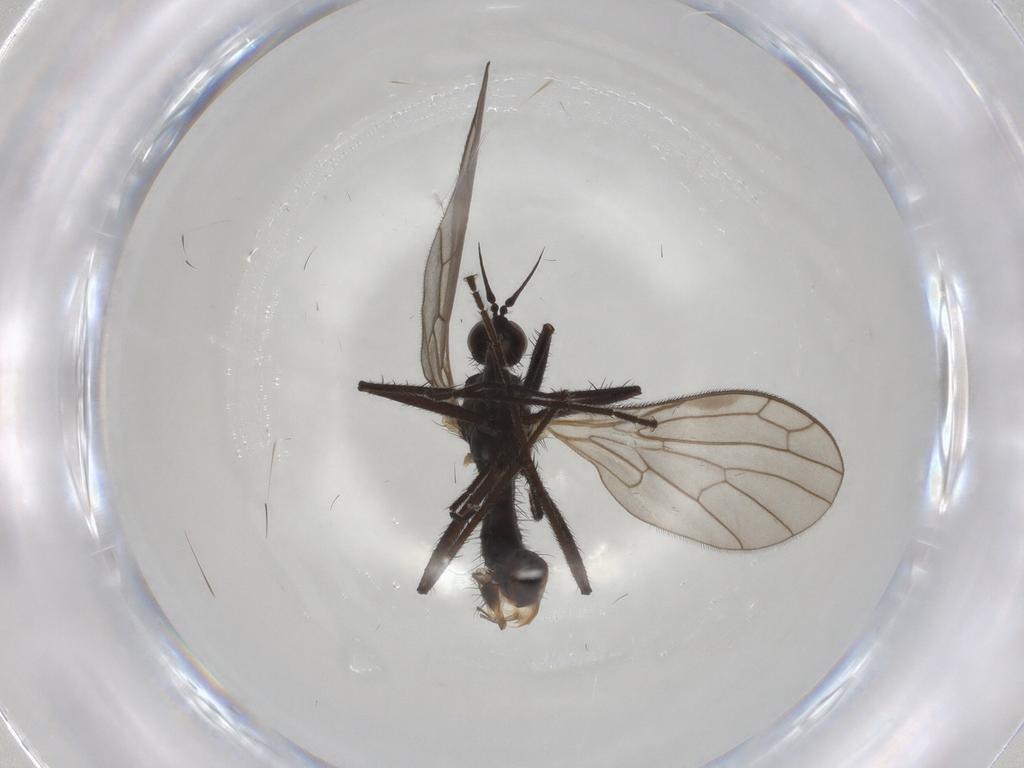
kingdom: Animalia
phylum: Arthropoda
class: Insecta
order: Diptera
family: Empididae
